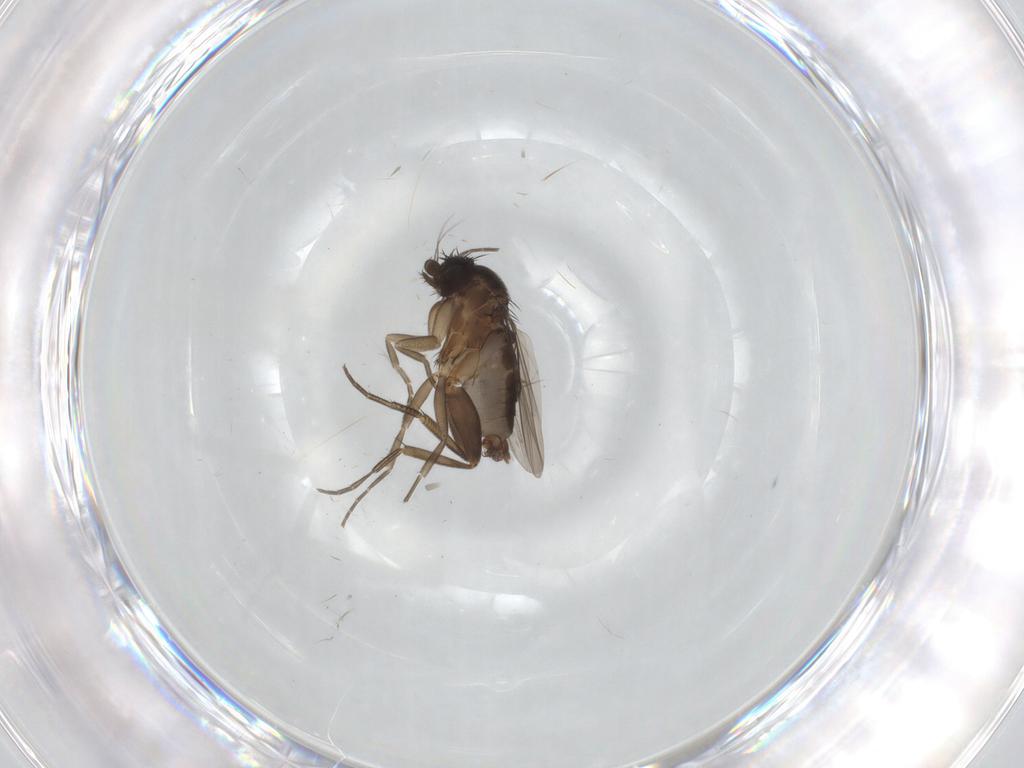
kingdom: Animalia
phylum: Arthropoda
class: Insecta
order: Diptera
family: Phoridae
